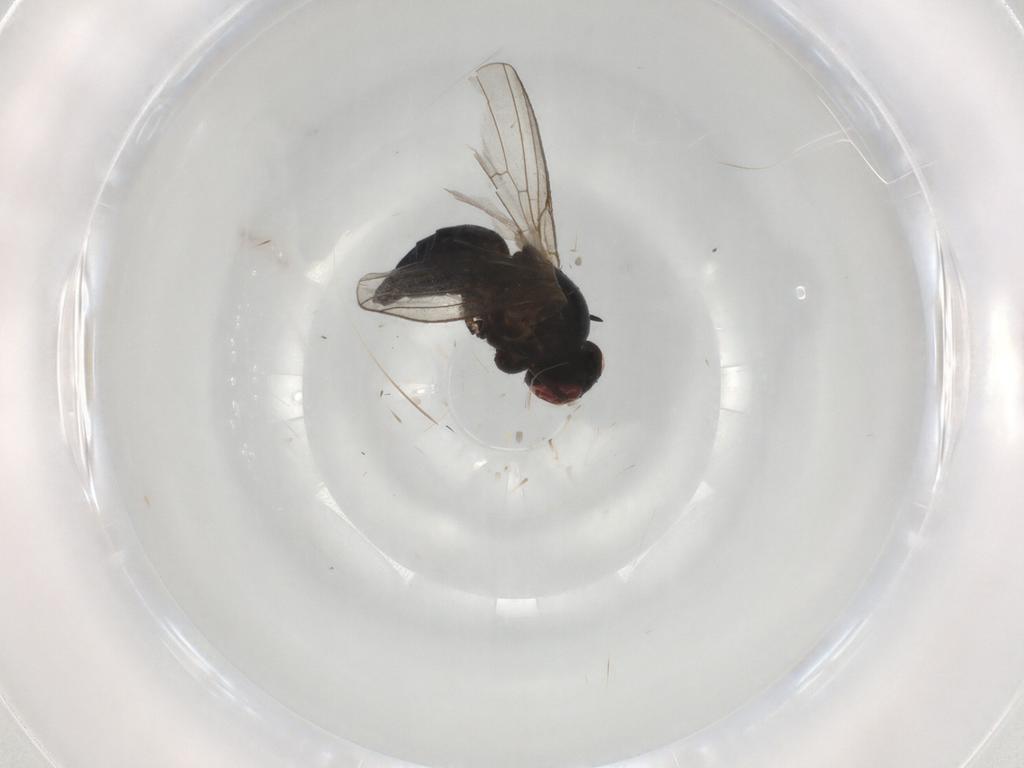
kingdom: Animalia
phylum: Arthropoda
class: Insecta
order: Diptera
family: Agromyzidae
